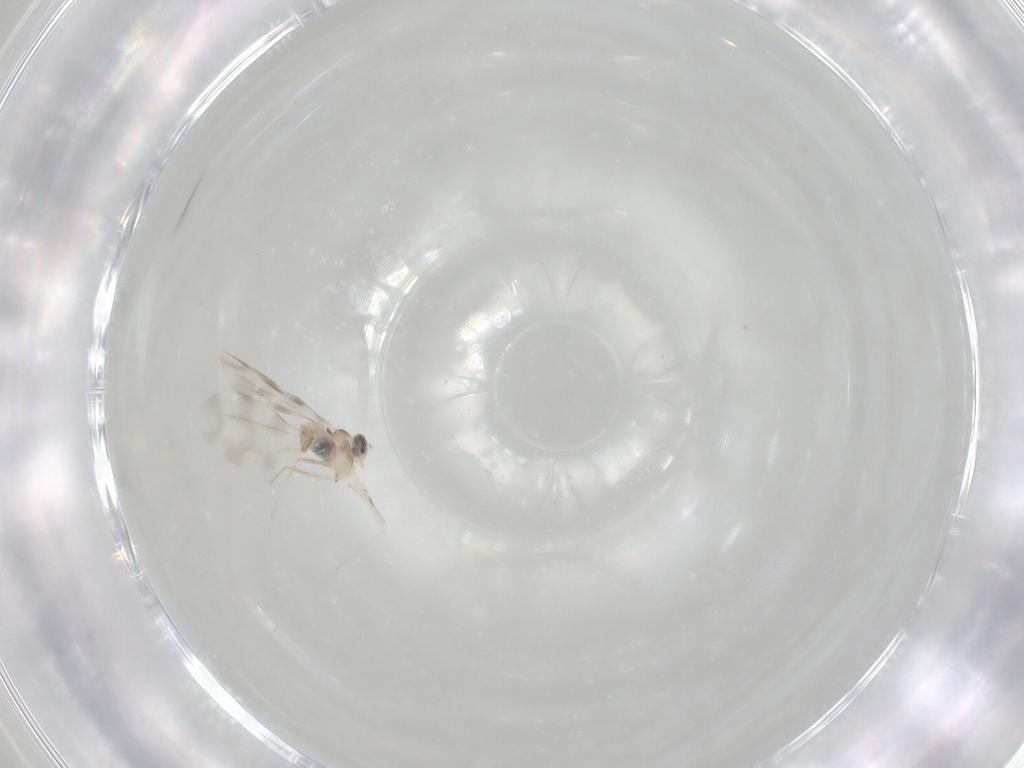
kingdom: Animalia
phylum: Arthropoda
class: Insecta
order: Diptera
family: Cecidomyiidae
